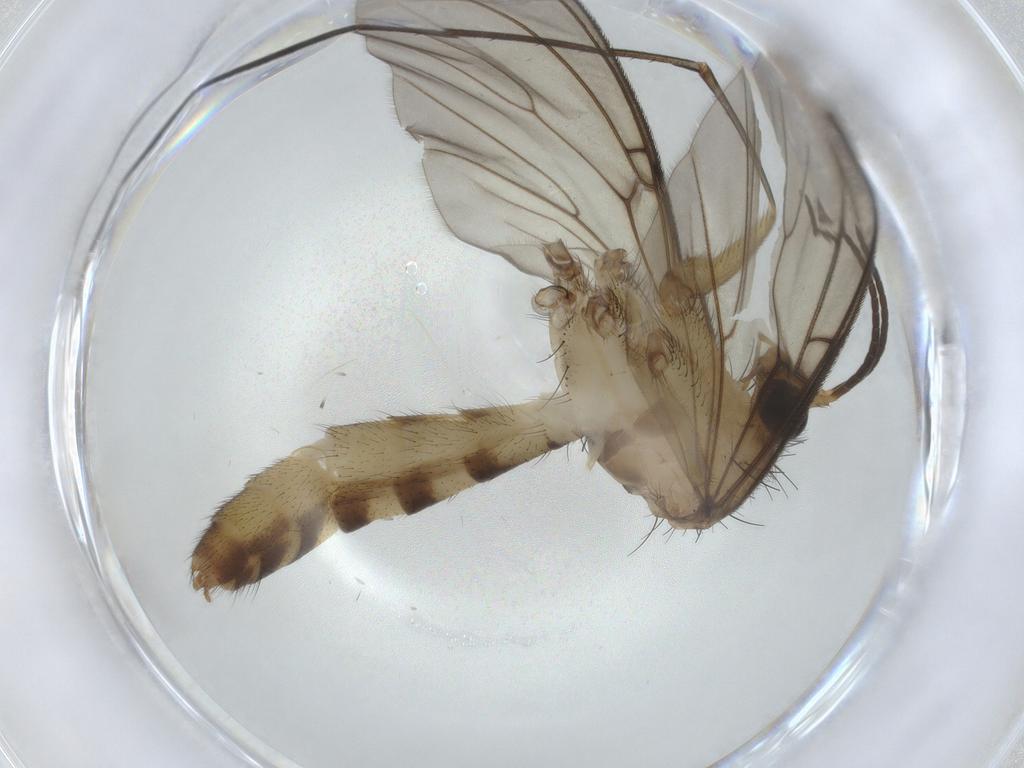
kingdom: Animalia
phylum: Arthropoda
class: Insecta
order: Diptera
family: Mycetophilidae
